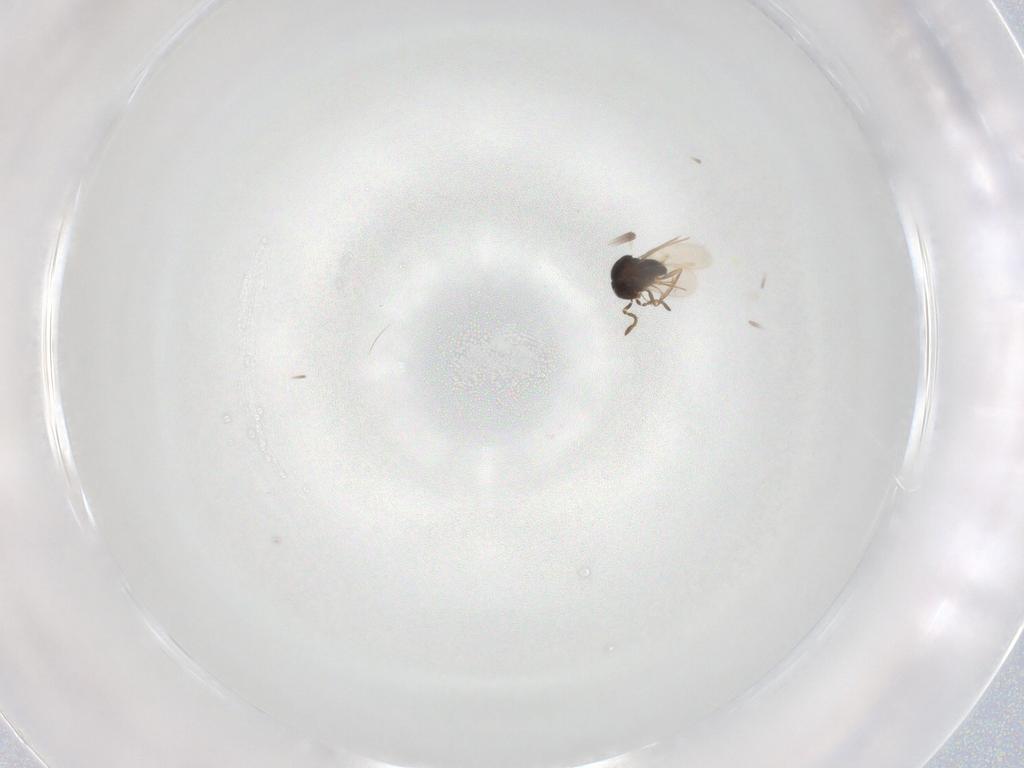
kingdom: Animalia
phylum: Arthropoda
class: Insecta
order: Hymenoptera
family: Scelionidae
